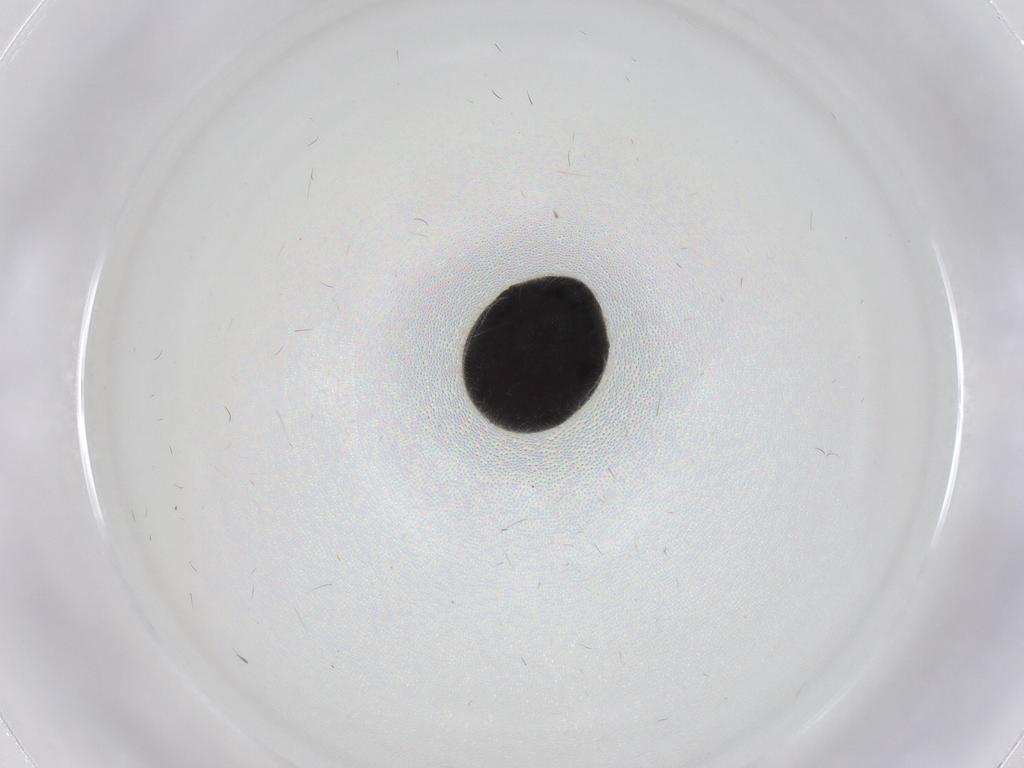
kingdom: Animalia
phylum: Arthropoda
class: Insecta
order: Coleoptera
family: Ptinidae
